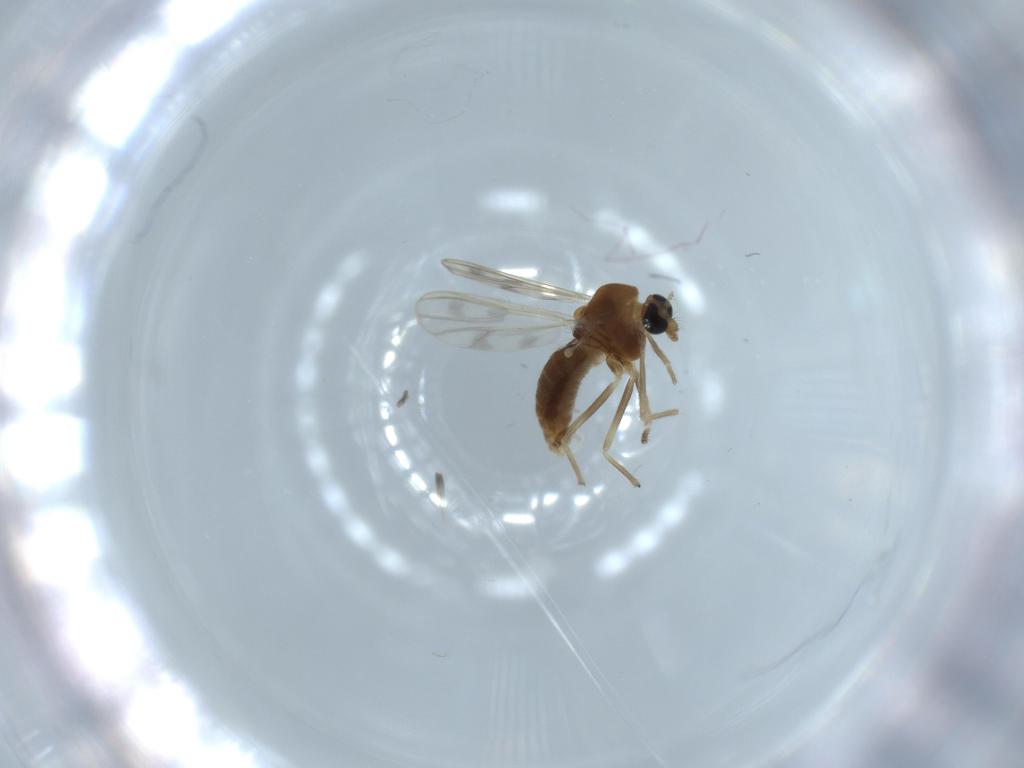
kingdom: Animalia
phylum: Arthropoda
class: Insecta
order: Diptera
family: Chironomidae
